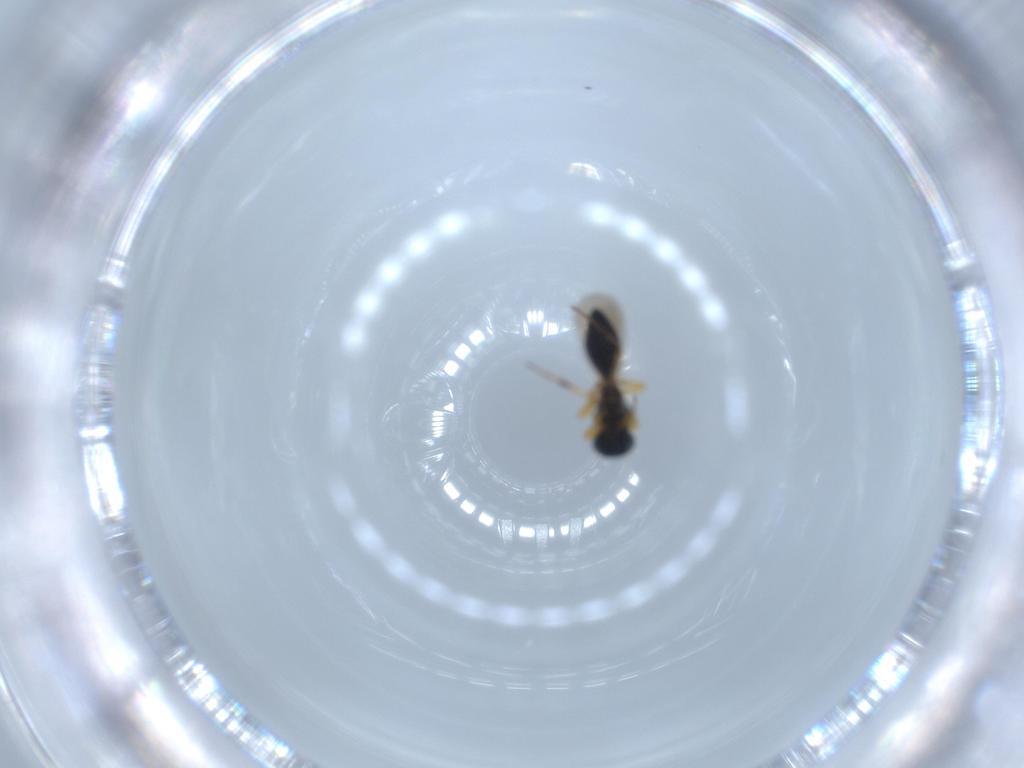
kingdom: Animalia
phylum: Arthropoda
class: Insecta
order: Hymenoptera
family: Platygastridae
